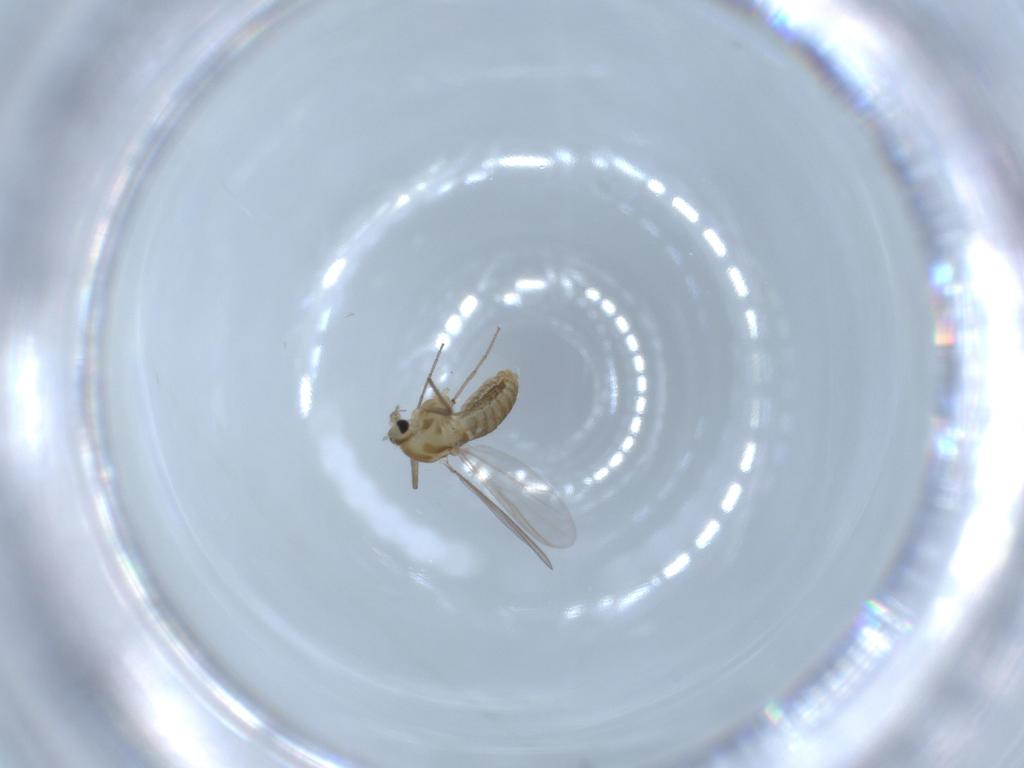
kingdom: Animalia
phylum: Arthropoda
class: Insecta
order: Diptera
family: Chironomidae
